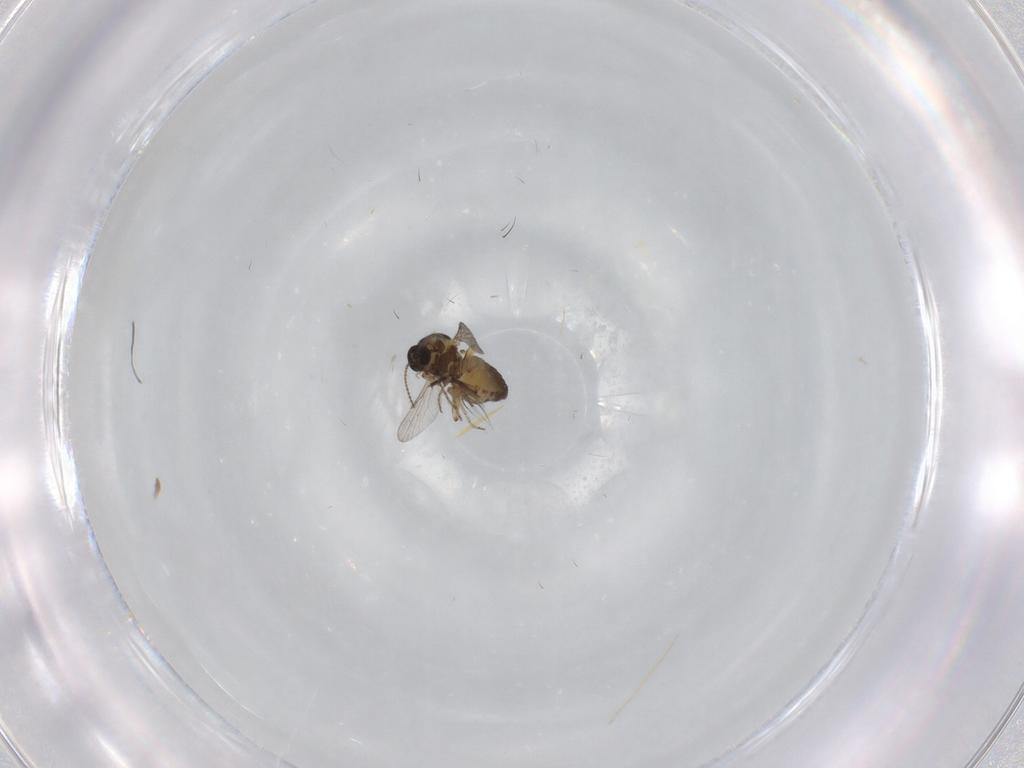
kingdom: Animalia
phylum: Arthropoda
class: Insecta
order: Diptera
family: Ceratopogonidae
